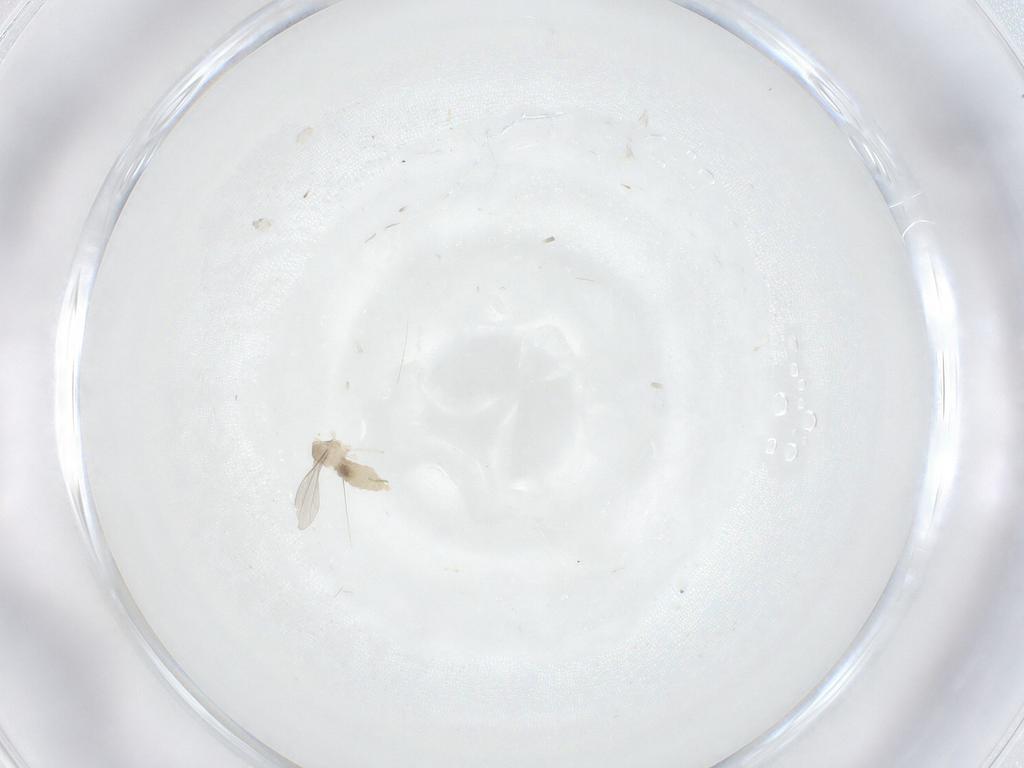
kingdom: Animalia
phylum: Arthropoda
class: Insecta
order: Diptera
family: Cecidomyiidae
